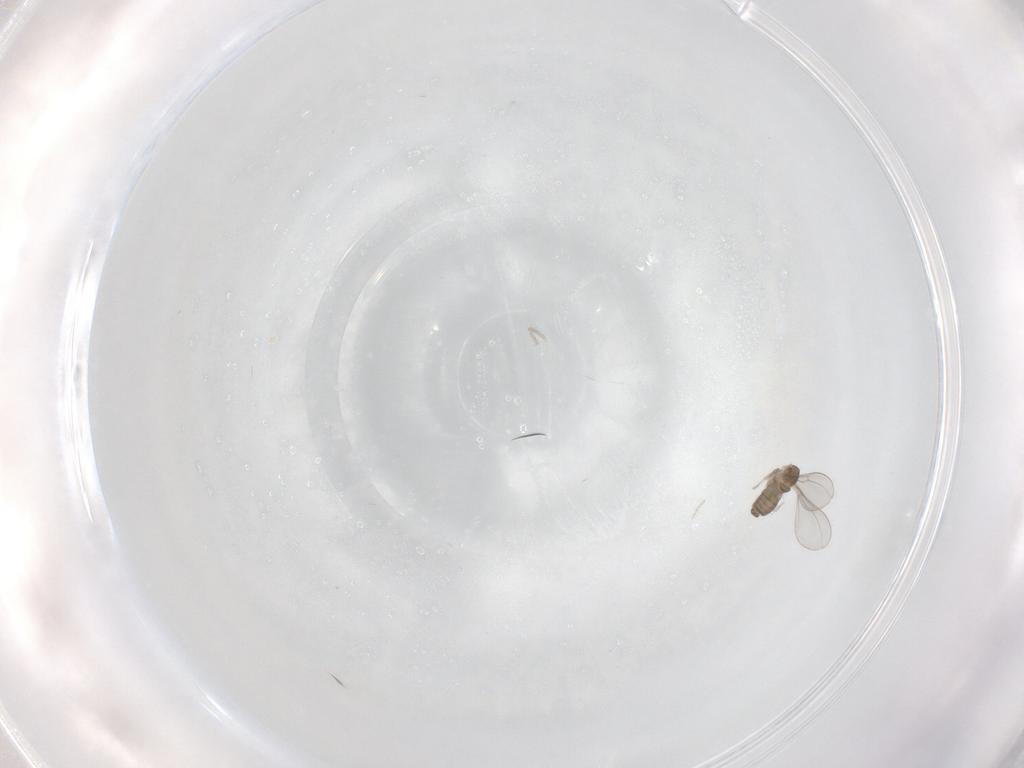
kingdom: Animalia
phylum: Arthropoda
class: Insecta
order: Diptera
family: Cecidomyiidae
